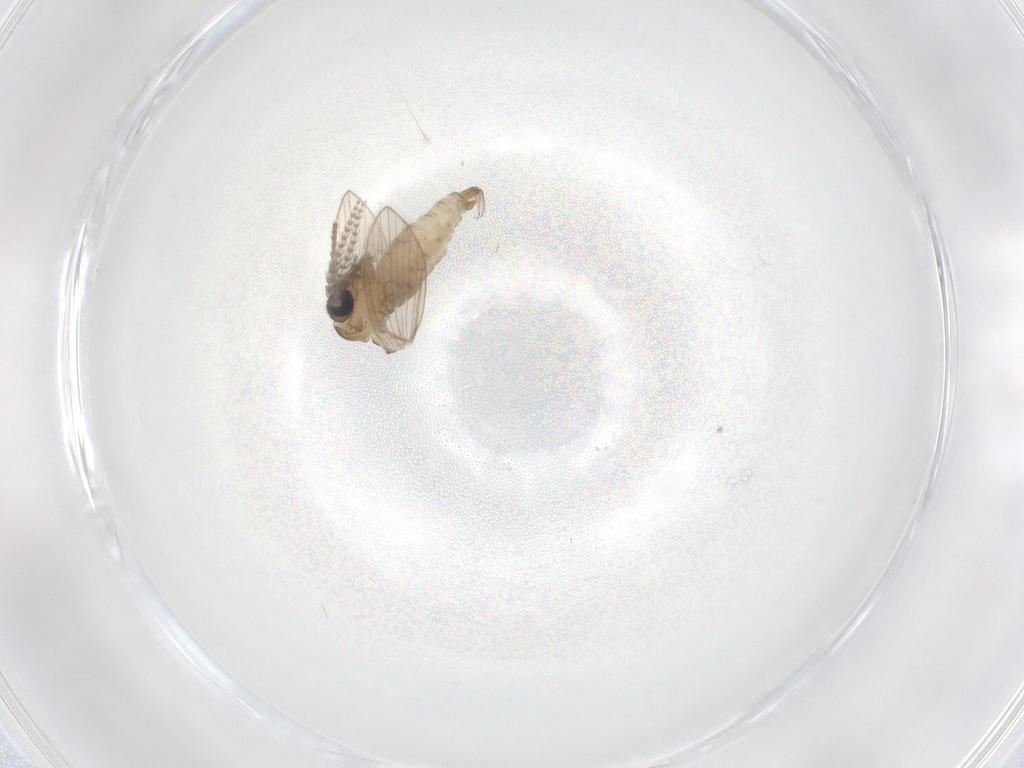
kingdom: Animalia
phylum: Arthropoda
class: Insecta
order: Diptera
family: Psychodidae
